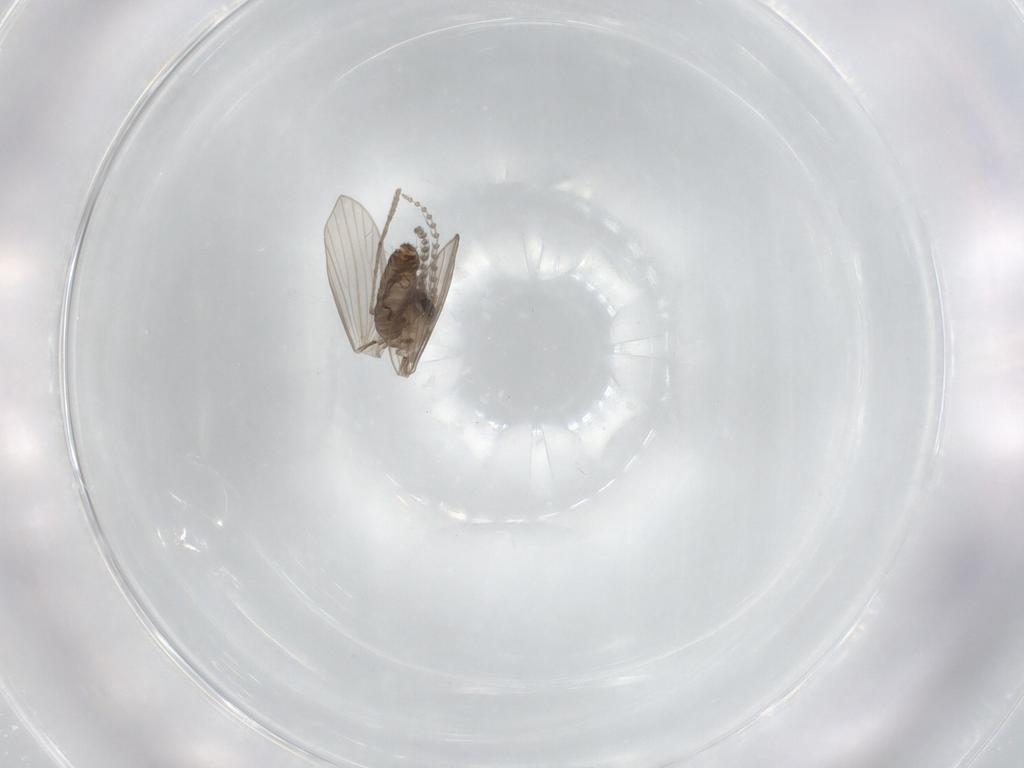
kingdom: Animalia
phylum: Arthropoda
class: Insecta
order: Diptera
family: Psychodidae
